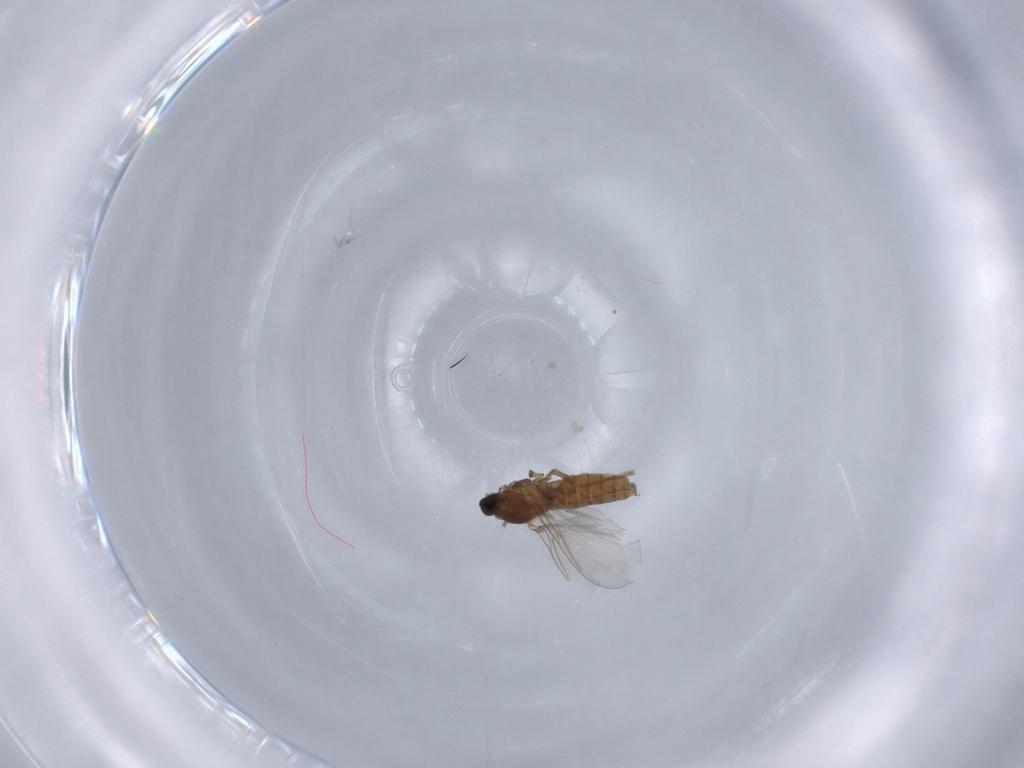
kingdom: Animalia
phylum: Arthropoda
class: Insecta
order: Diptera
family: Cecidomyiidae
